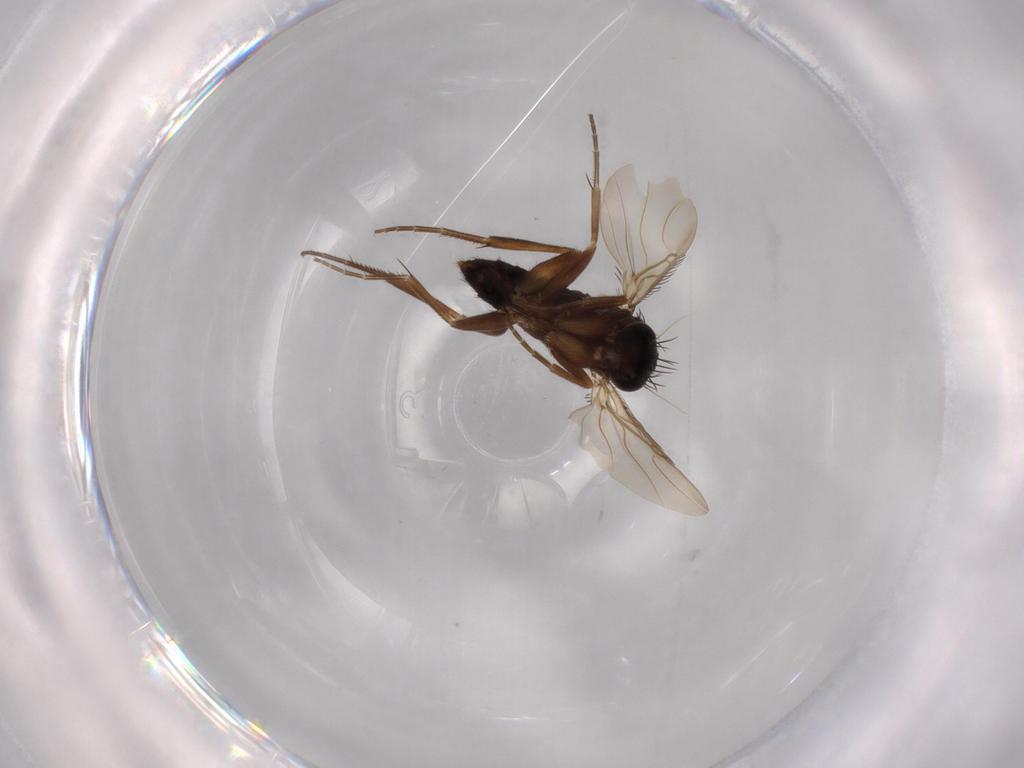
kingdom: Animalia
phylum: Arthropoda
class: Insecta
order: Diptera
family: Phoridae
